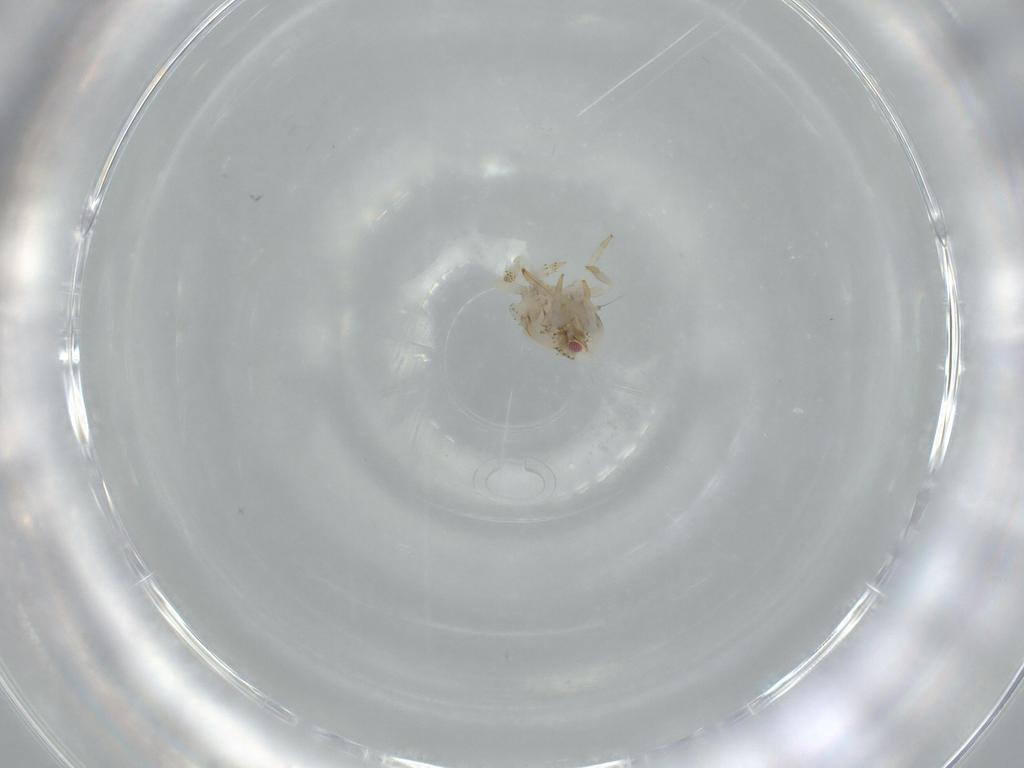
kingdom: Animalia
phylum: Arthropoda
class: Insecta
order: Hemiptera
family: Acanaloniidae
